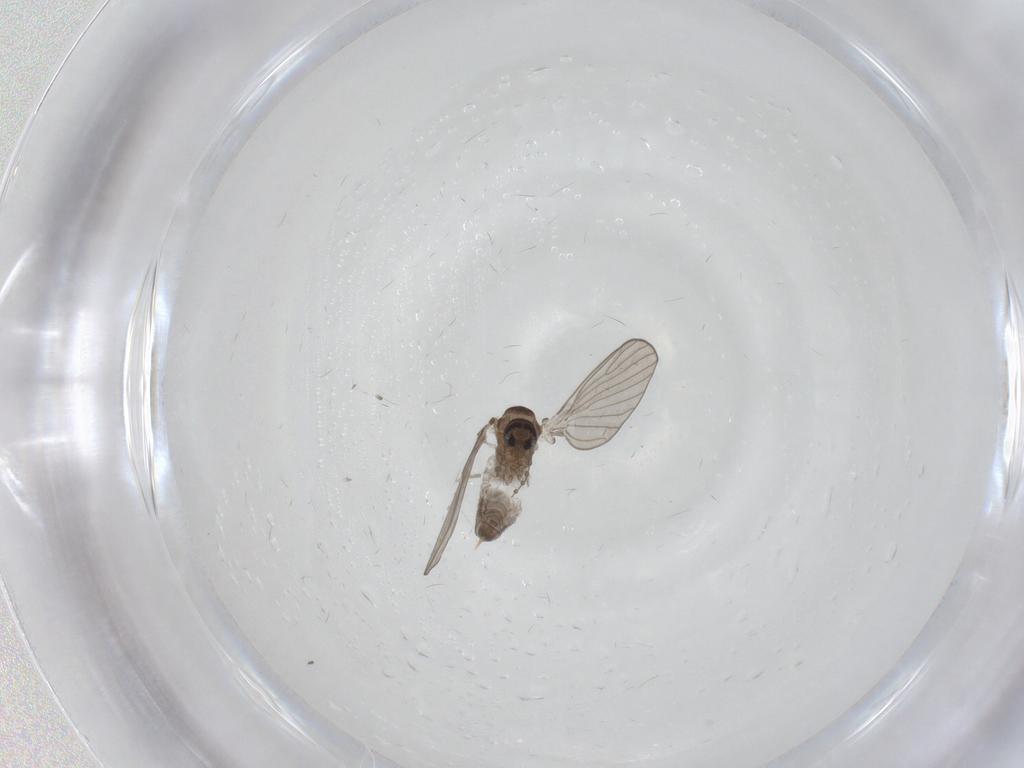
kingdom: Animalia
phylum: Arthropoda
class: Insecta
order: Diptera
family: Psychodidae
